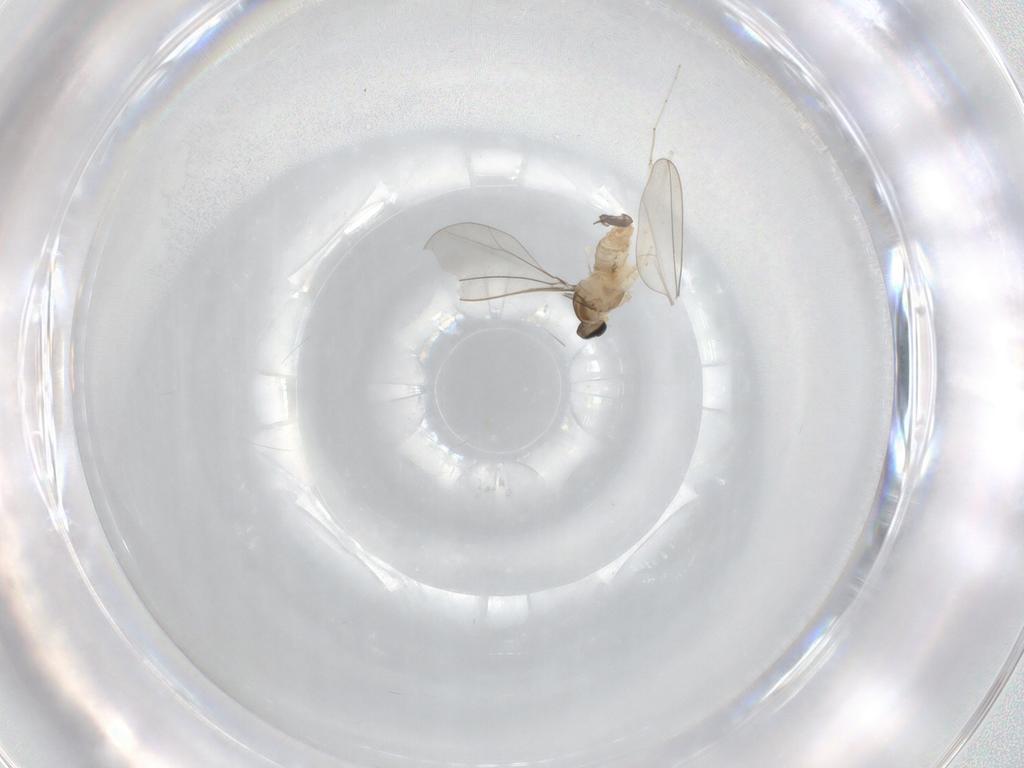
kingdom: Animalia
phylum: Arthropoda
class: Insecta
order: Diptera
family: Cecidomyiidae
